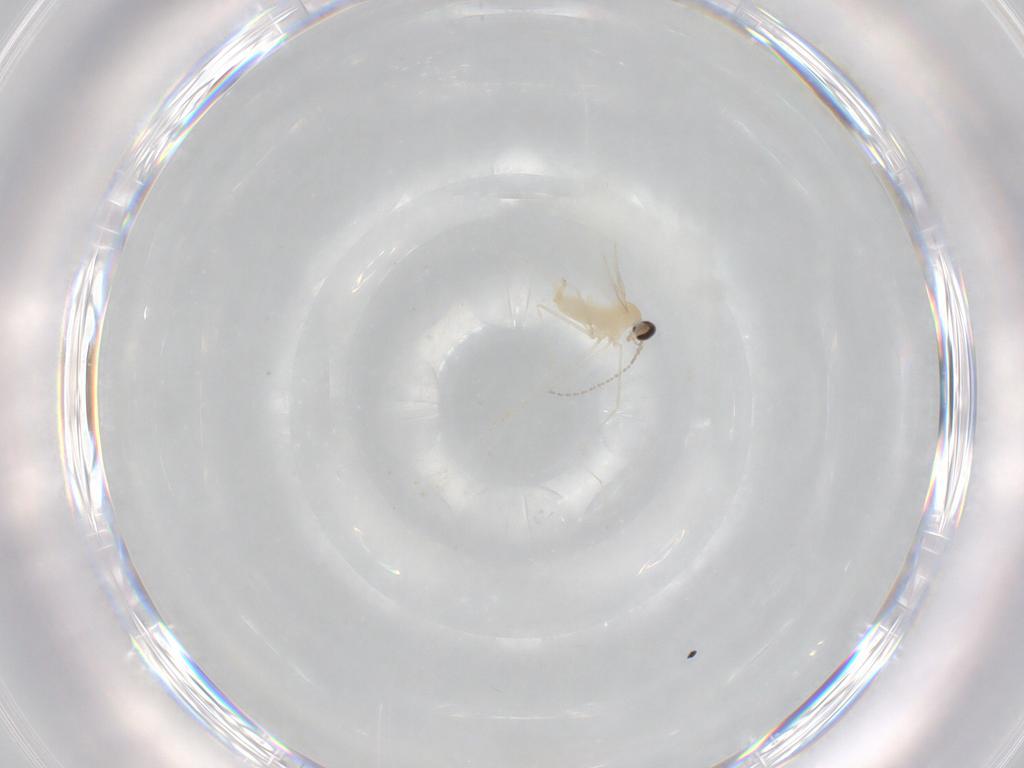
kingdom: Animalia
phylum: Arthropoda
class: Insecta
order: Diptera
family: Cecidomyiidae
